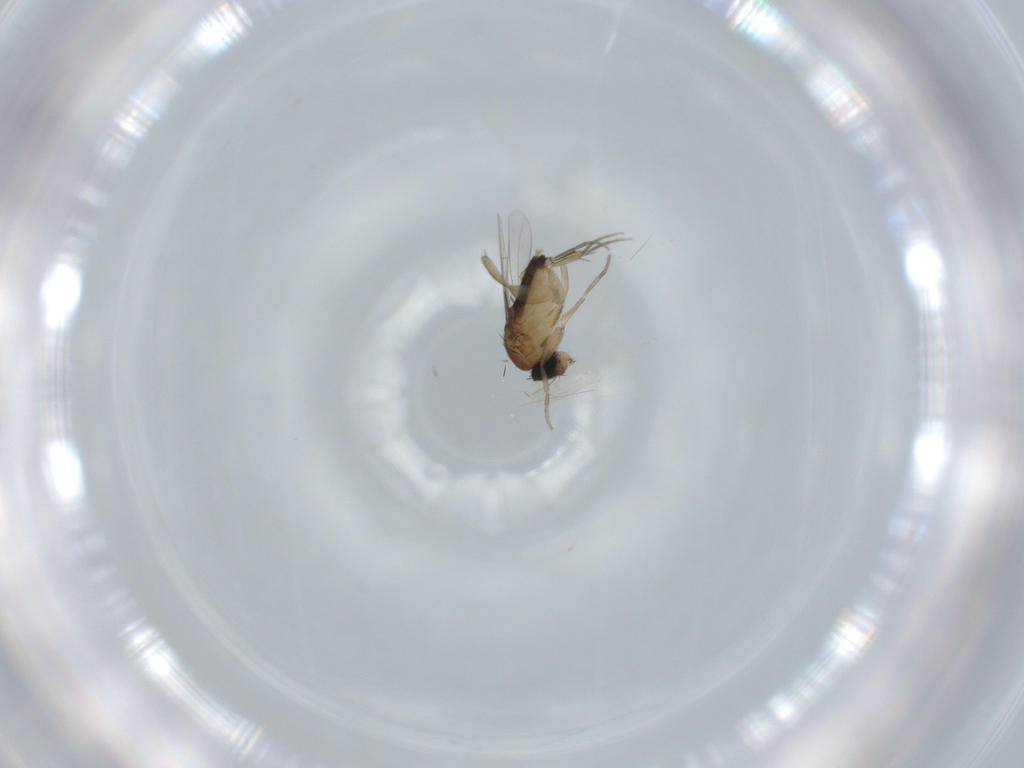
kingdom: Animalia
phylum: Arthropoda
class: Insecta
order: Diptera
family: Phoridae
